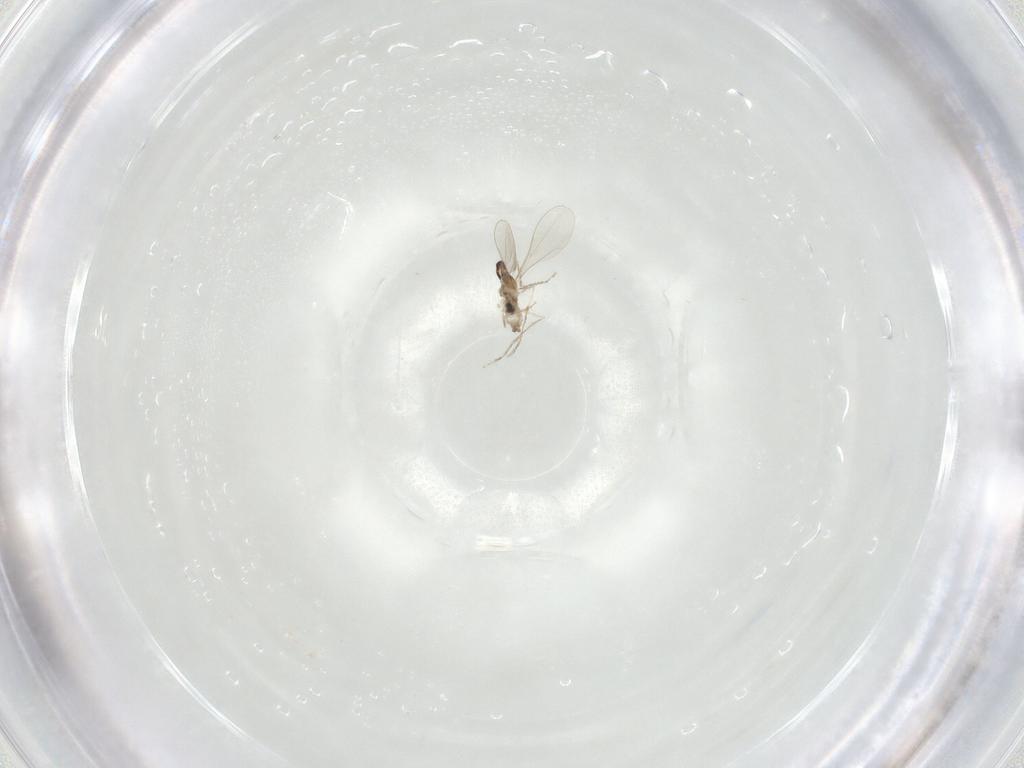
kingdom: Animalia
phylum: Arthropoda
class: Insecta
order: Diptera
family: Cecidomyiidae
